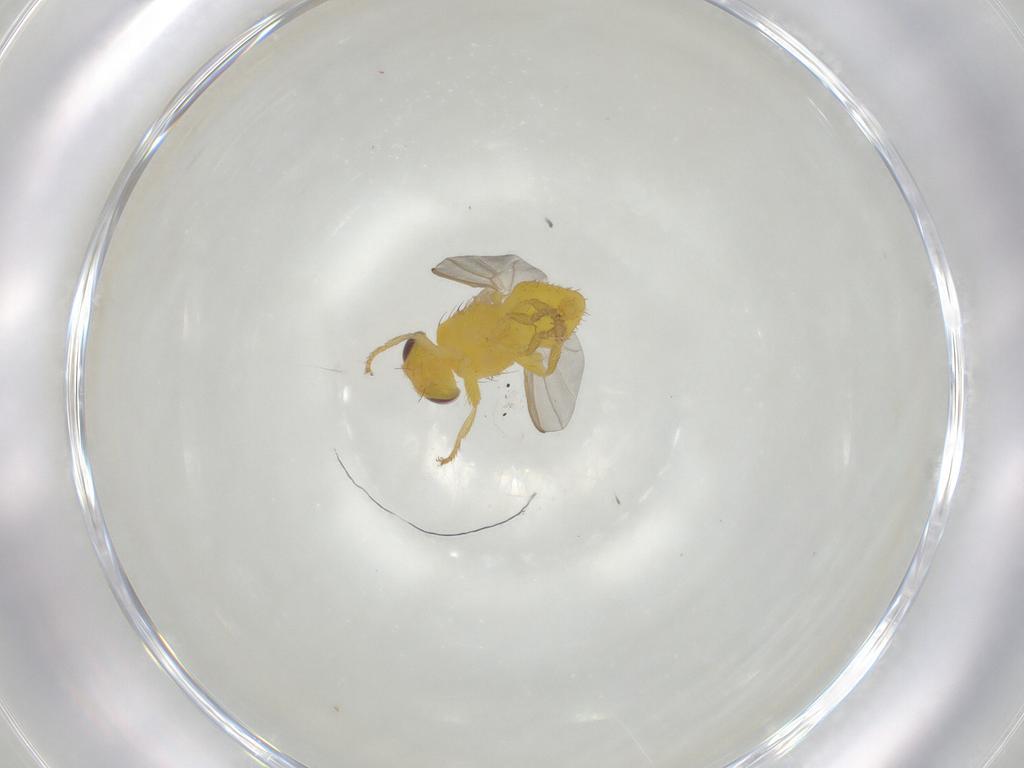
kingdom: Animalia
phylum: Arthropoda
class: Insecta
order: Diptera
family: Fergusoninidae
